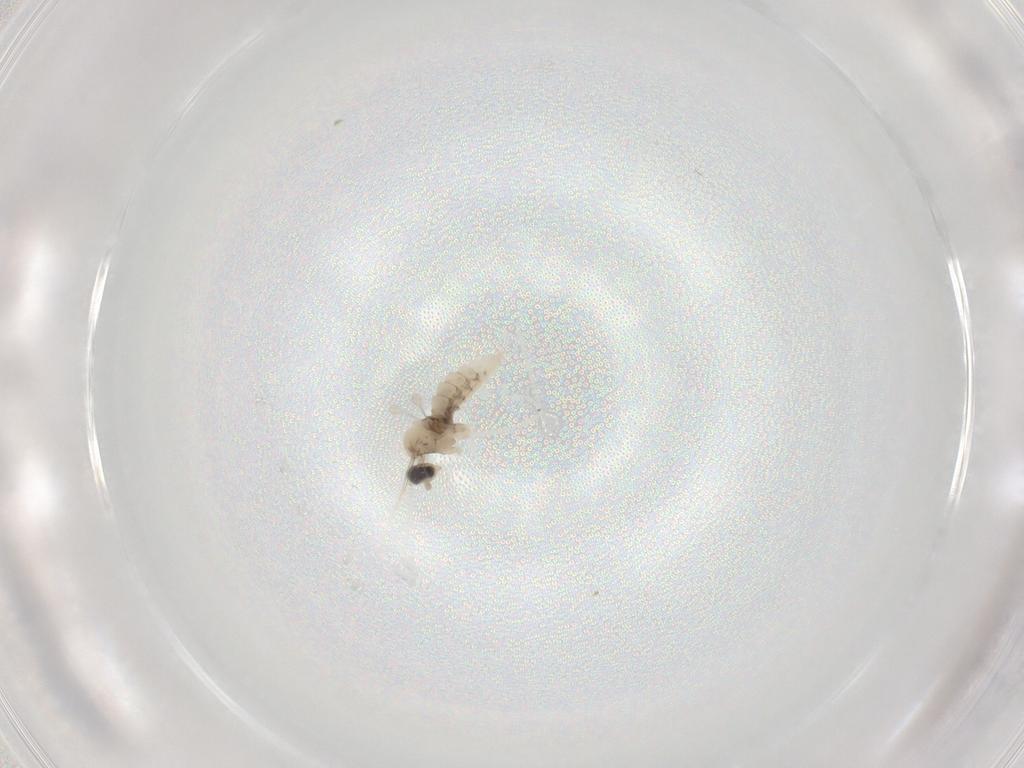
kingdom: Animalia
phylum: Arthropoda
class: Insecta
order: Diptera
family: Cecidomyiidae
